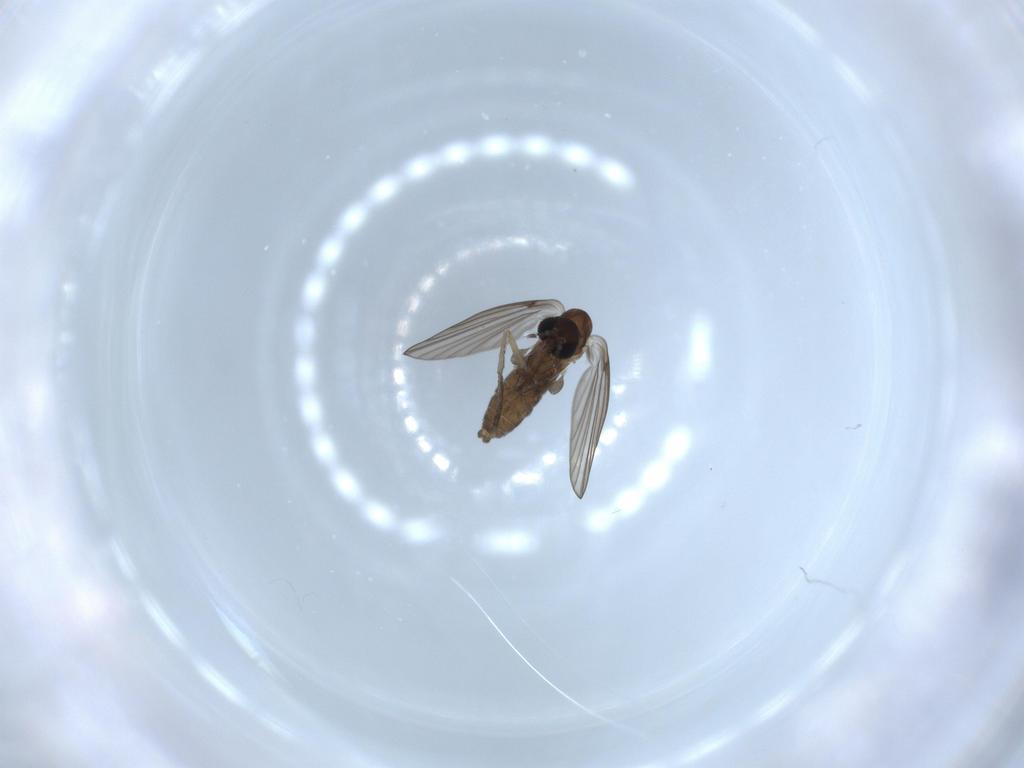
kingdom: Animalia
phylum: Arthropoda
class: Insecta
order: Diptera
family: Psychodidae
